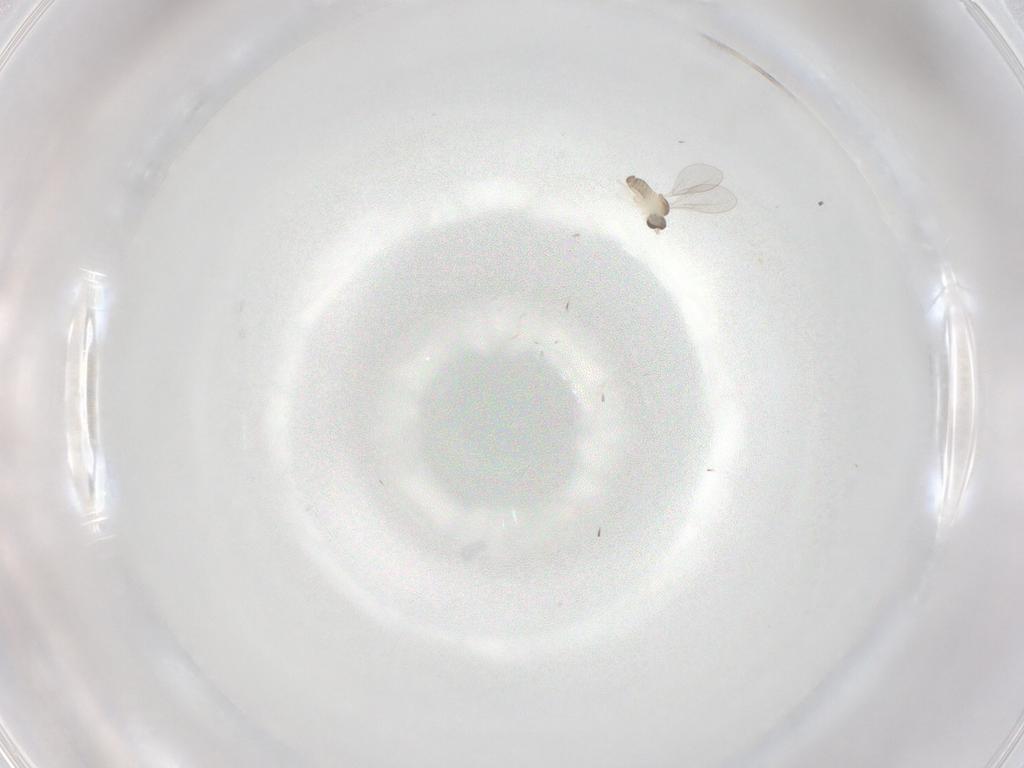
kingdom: Animalia
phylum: Arthropoda
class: Insecta
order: Diptera
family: Cecidomyiidae
